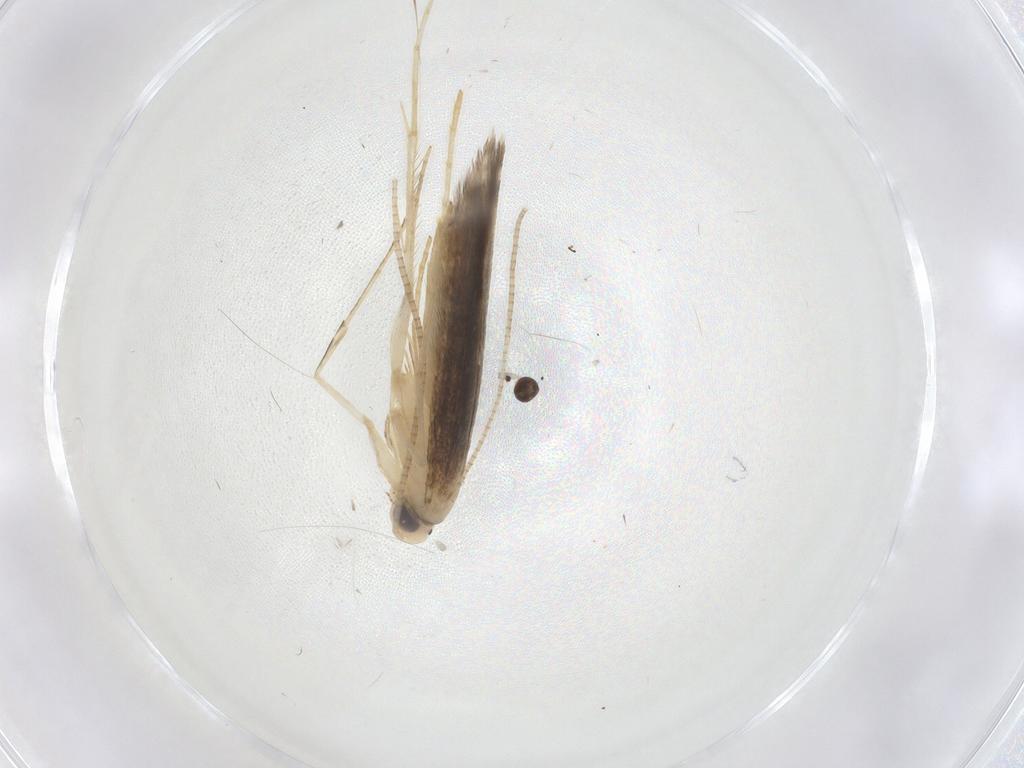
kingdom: Animalia
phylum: Arthropoda
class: Insecta
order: Lepidoptera
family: Gracillariidae
